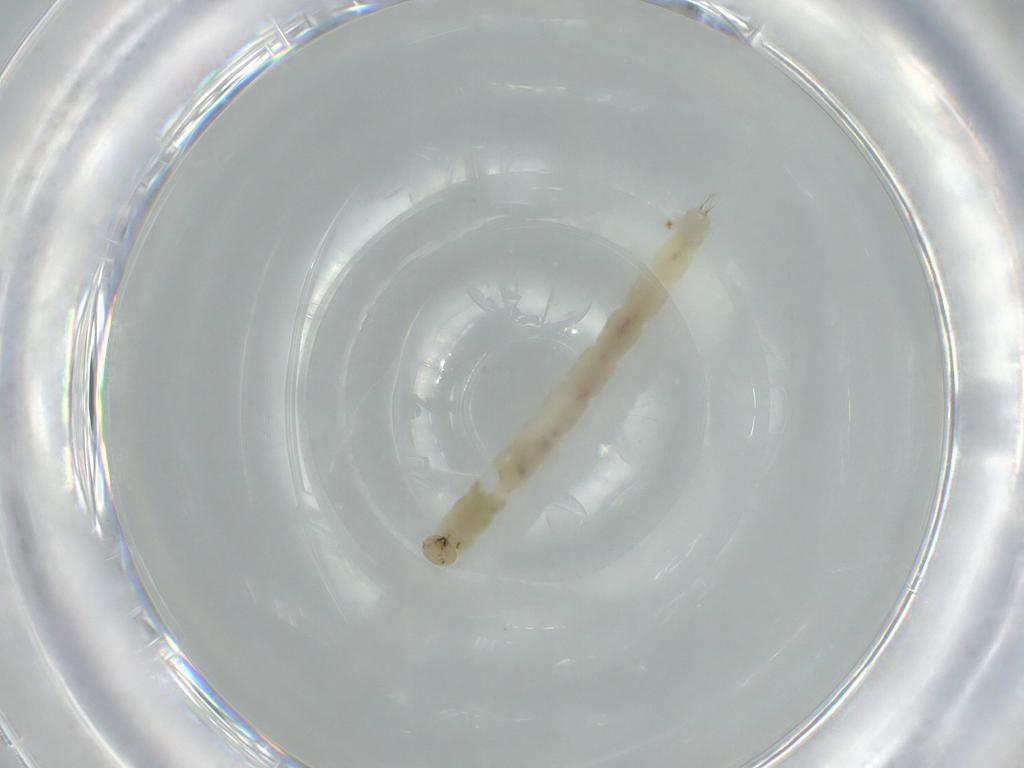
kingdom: Animalia
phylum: Arthropoda
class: Insecta
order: Diptera
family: Chironomidae
